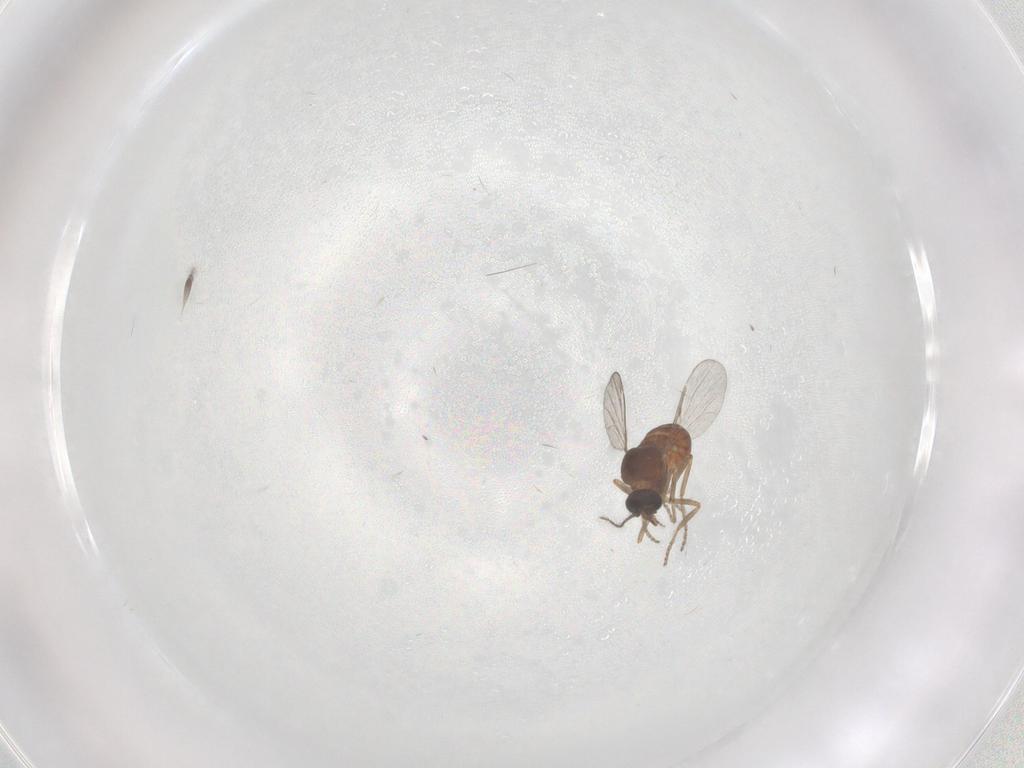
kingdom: Animalia
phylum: Arthropoda
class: Insecta
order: Diptera
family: Ceratopogonidae
